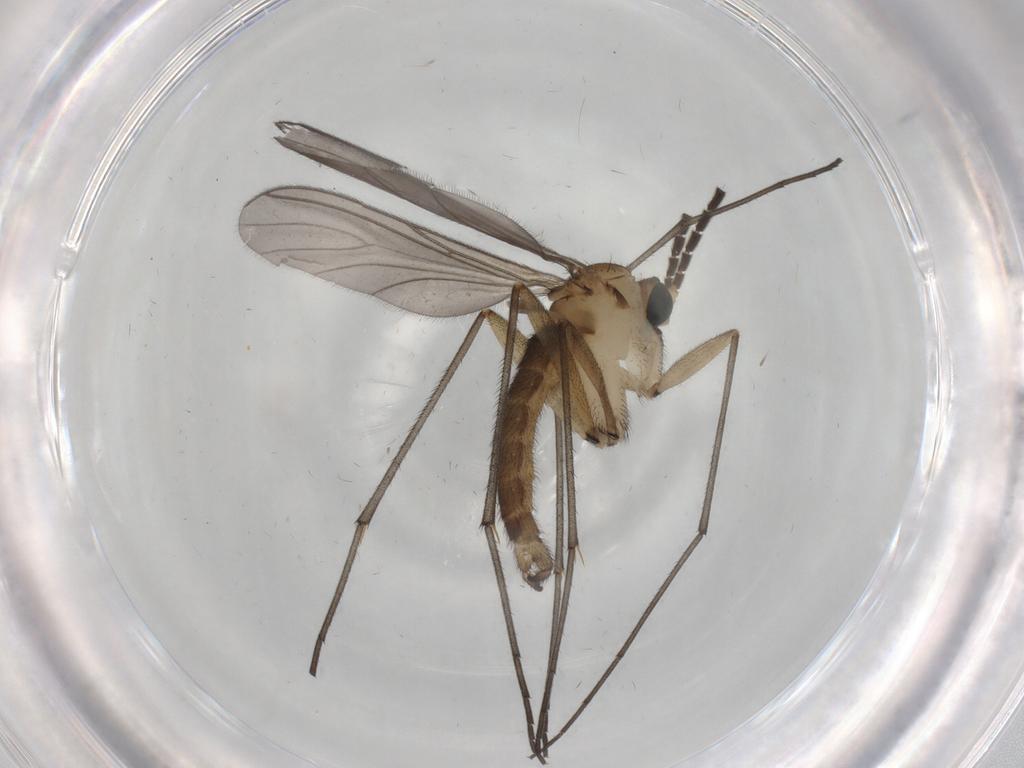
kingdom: Animalia
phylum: Arthropoda
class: Insecta
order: Diptera
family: Sciaridae
